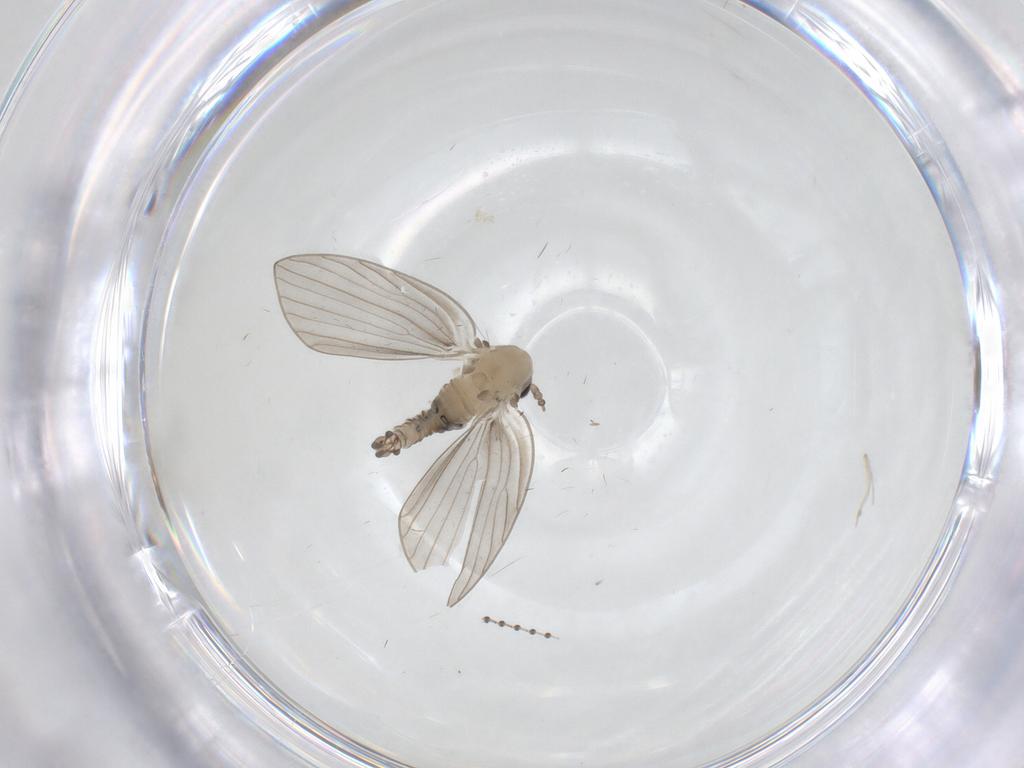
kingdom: Animalia
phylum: Arthropoda
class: Insecta
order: Diptera
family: Psychodidae
